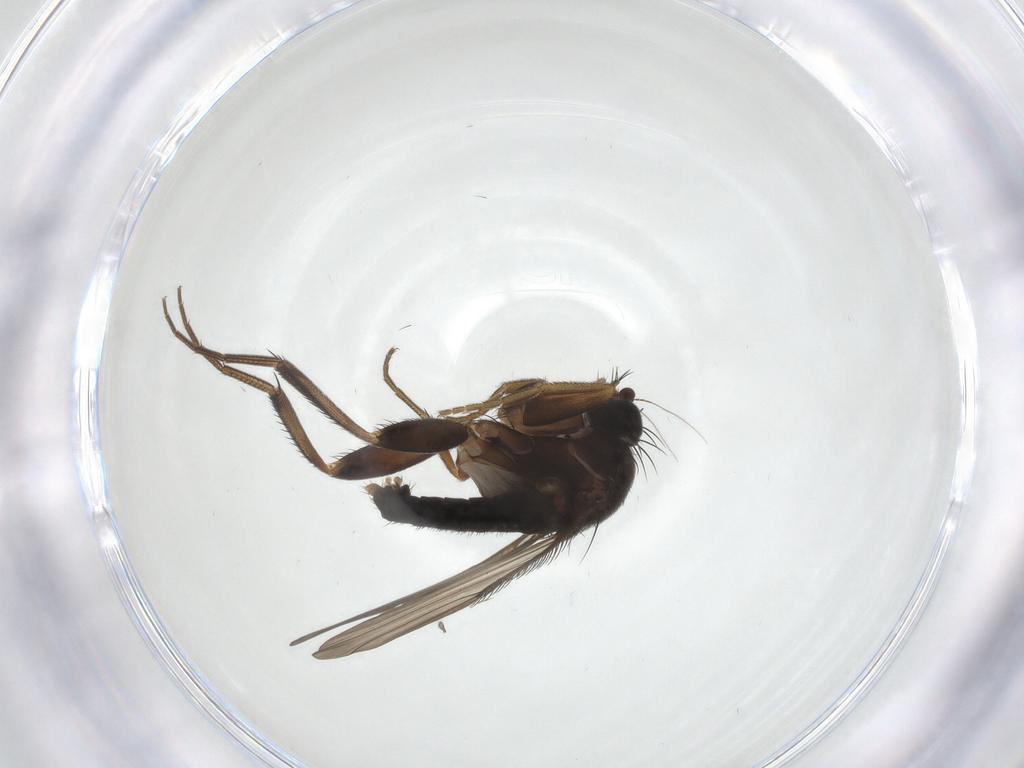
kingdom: Animalia
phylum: Arthropoda
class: Insecta
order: Diptera
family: Phoridae
